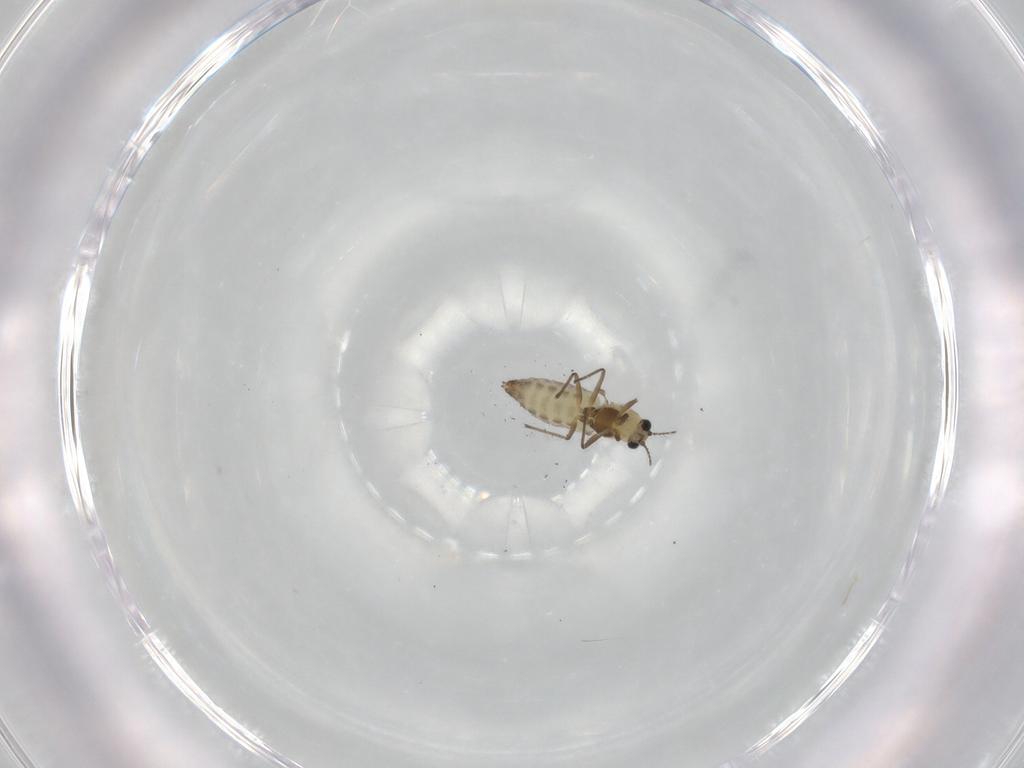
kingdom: Animalia
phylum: Arthropoda
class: Insecta
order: Diptera
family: Chironomidae
